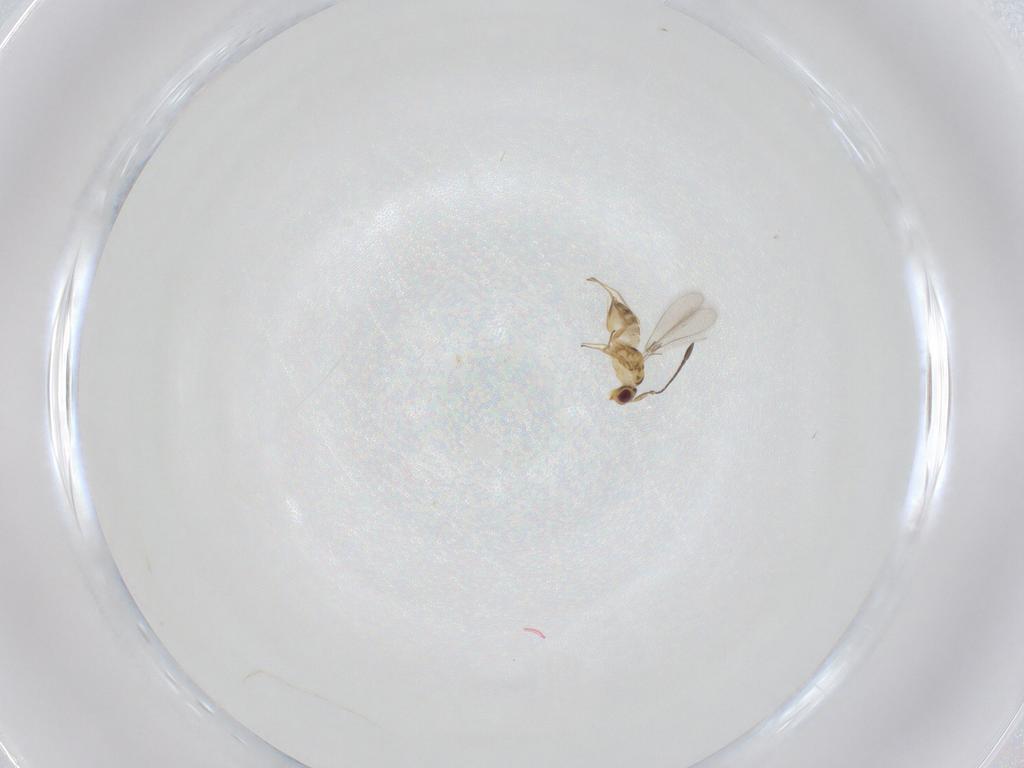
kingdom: Animalia
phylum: Arthropoda
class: Insecta
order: Hymenoptera
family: Mymaridae
